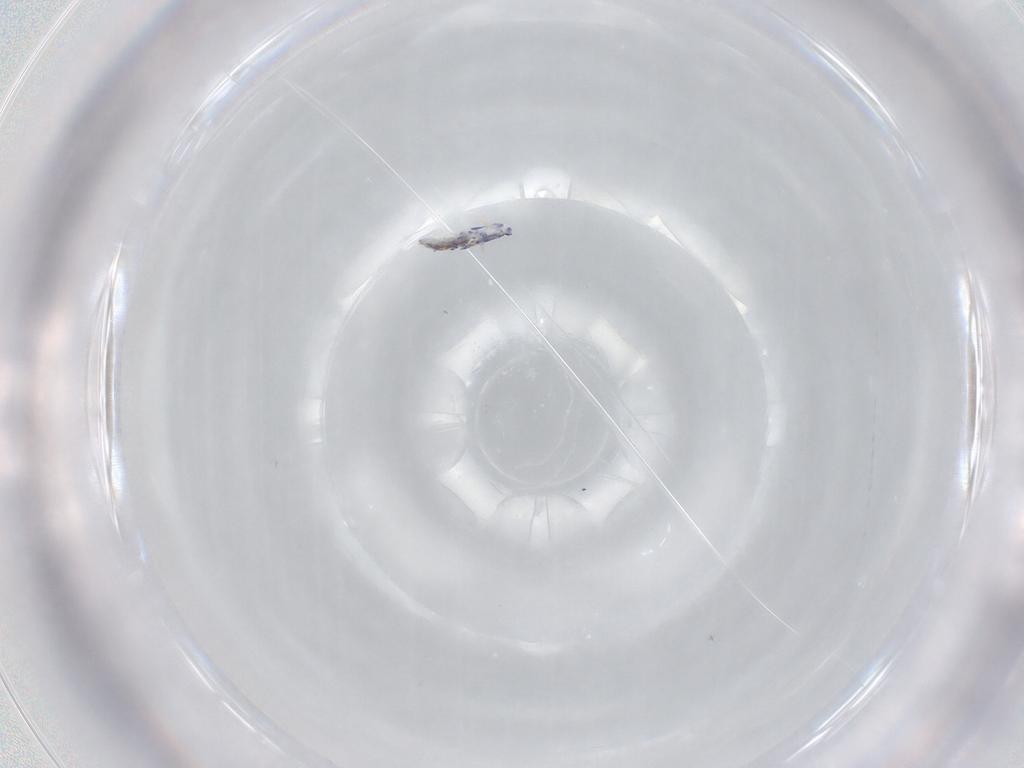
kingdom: Animalia
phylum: Arthropoda
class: Collembola
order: Entomobryomorpha
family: Entomobryidae
